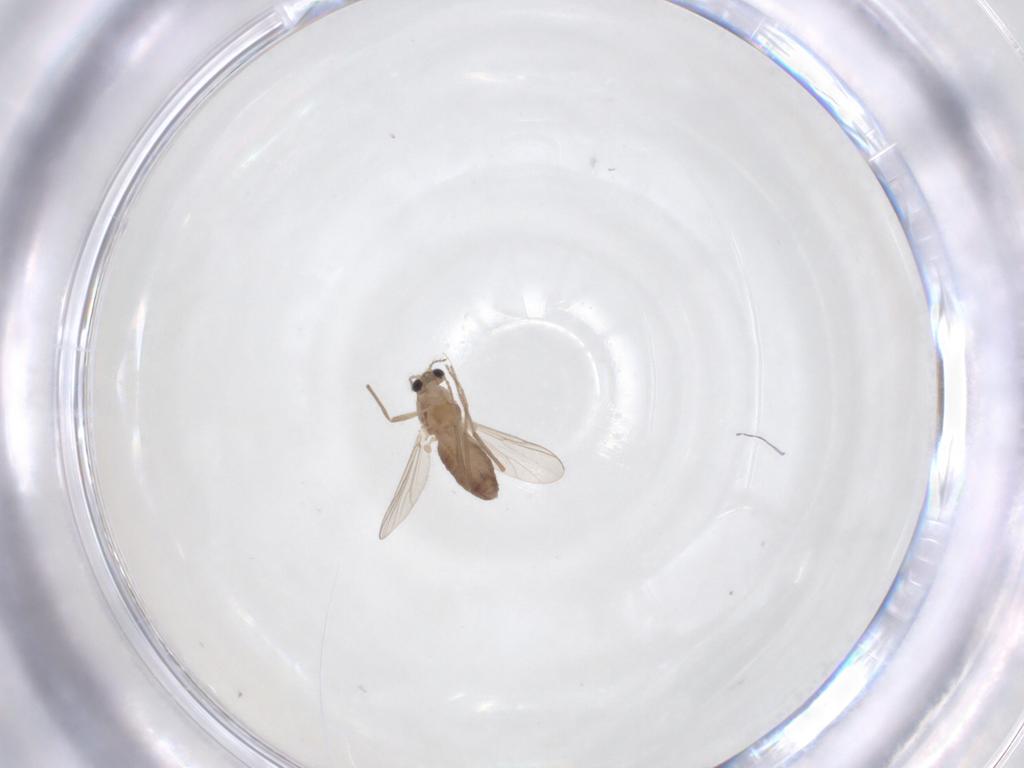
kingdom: Animalia
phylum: Arthropoda
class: Insecta
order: Diptera
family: Chironomidae
